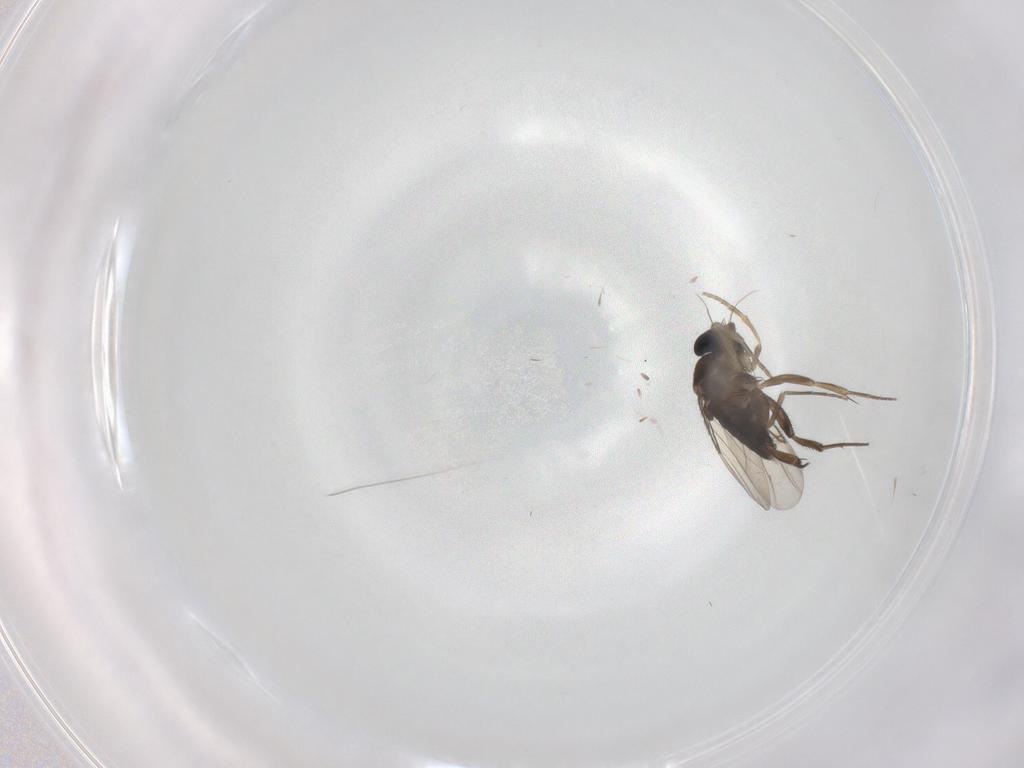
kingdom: Animalia
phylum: Arthropoda
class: Insecta
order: Diptera
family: Phoridae
